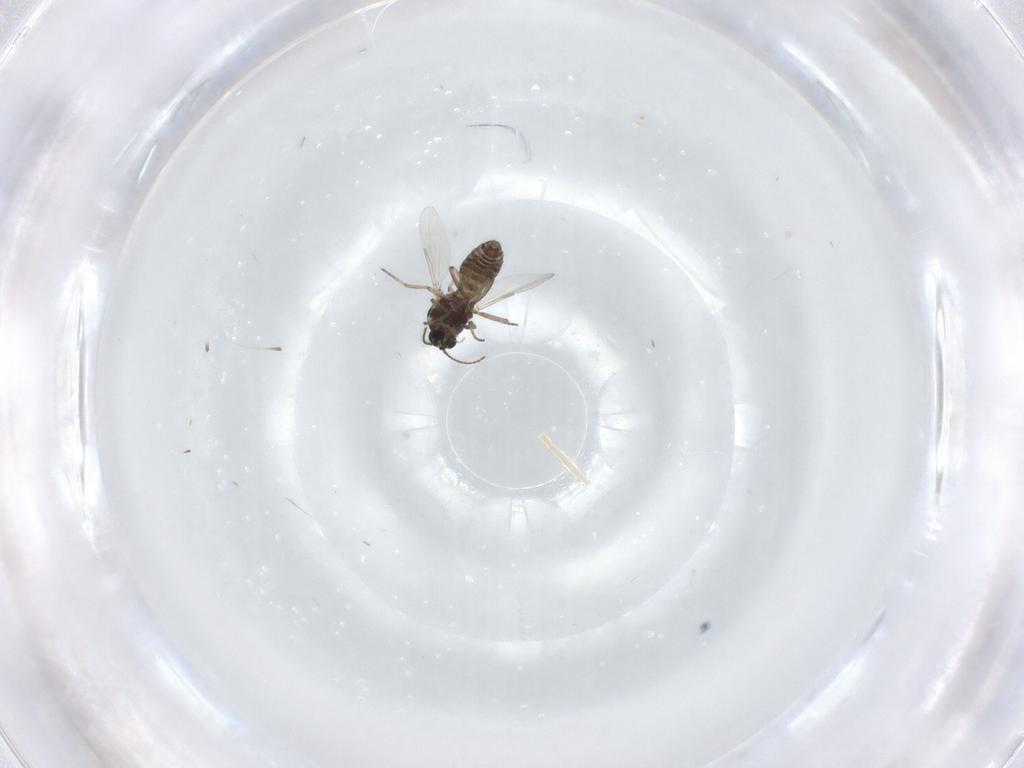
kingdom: Animalia
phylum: Arthropoda
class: Insecta
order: Diptera
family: Ceratopogonidae
